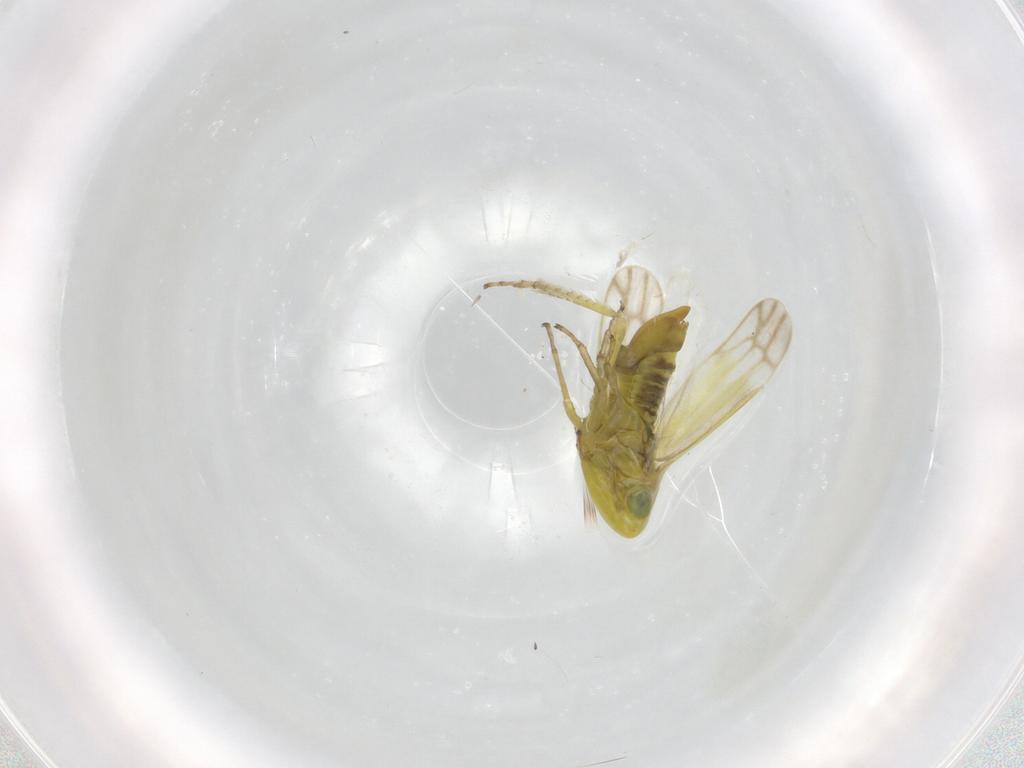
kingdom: Animalia
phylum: Arthropoda
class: Insecta
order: Hemiptera
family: Cicadellidae
